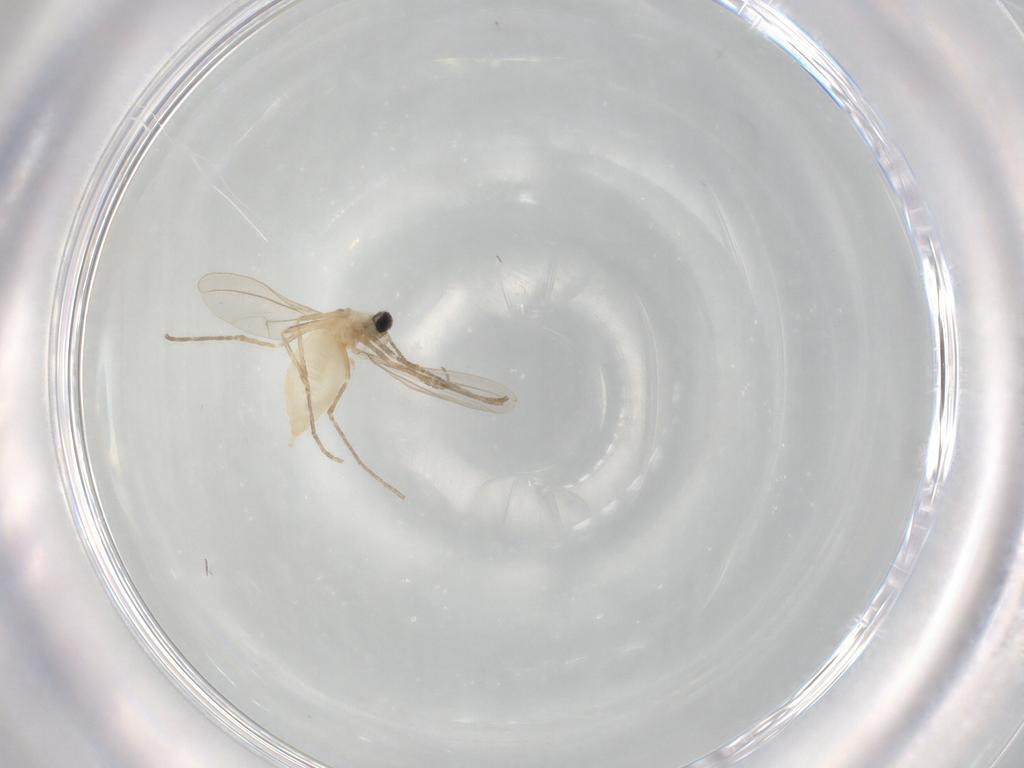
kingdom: Animalia
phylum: Arthropoda
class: Insecta
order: Diptera
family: Cecidomyiidae
